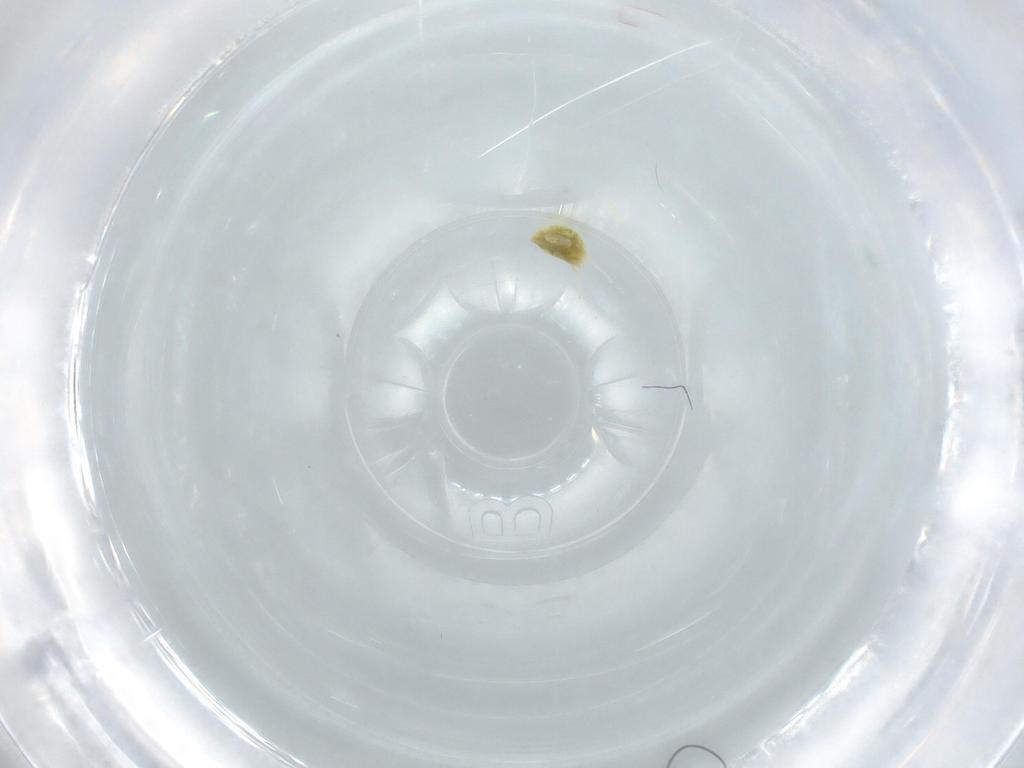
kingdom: Animalia
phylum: Arthropoda
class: Arachnida
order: Trombidiformes
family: Tetranychidae
